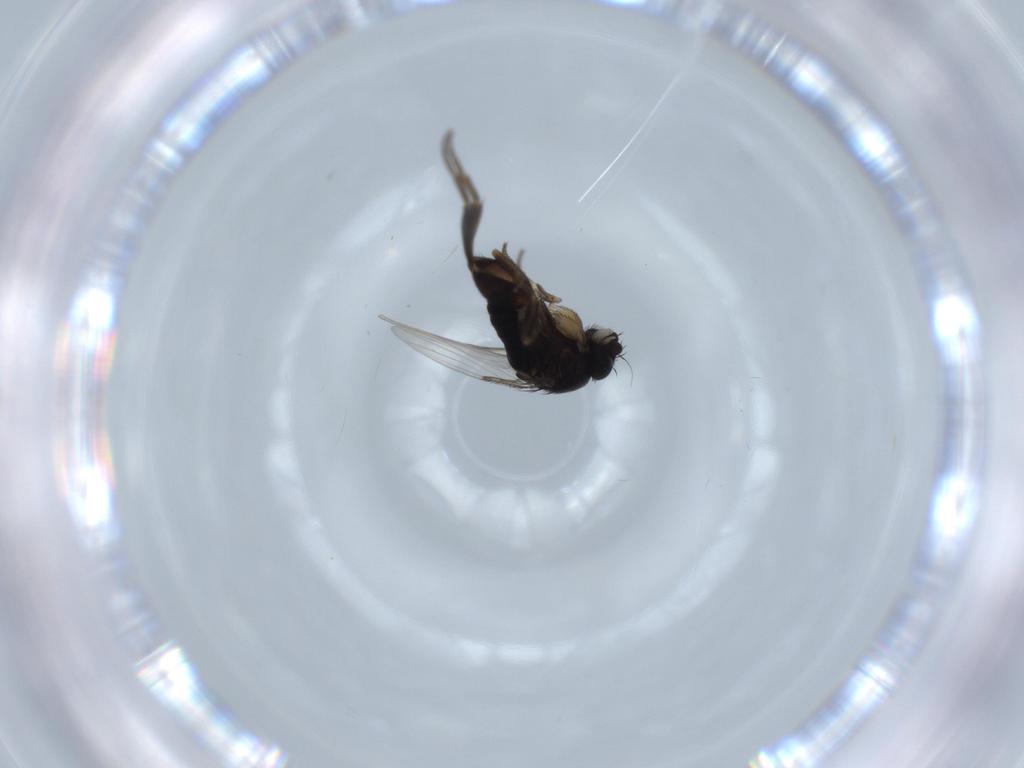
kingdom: Animalia
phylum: Arthropoda
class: Insecta
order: Diptera
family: Phoridae
